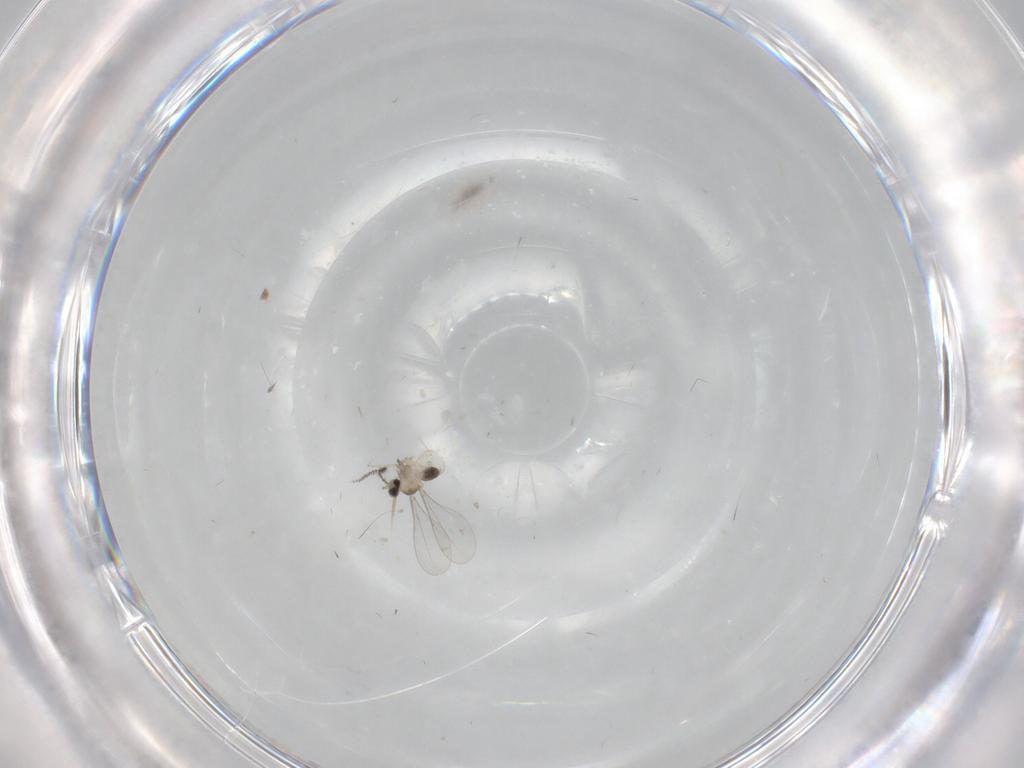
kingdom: Animalia
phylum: Arthropoda
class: Insecta
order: Diptera
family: Cecidomyiidae
